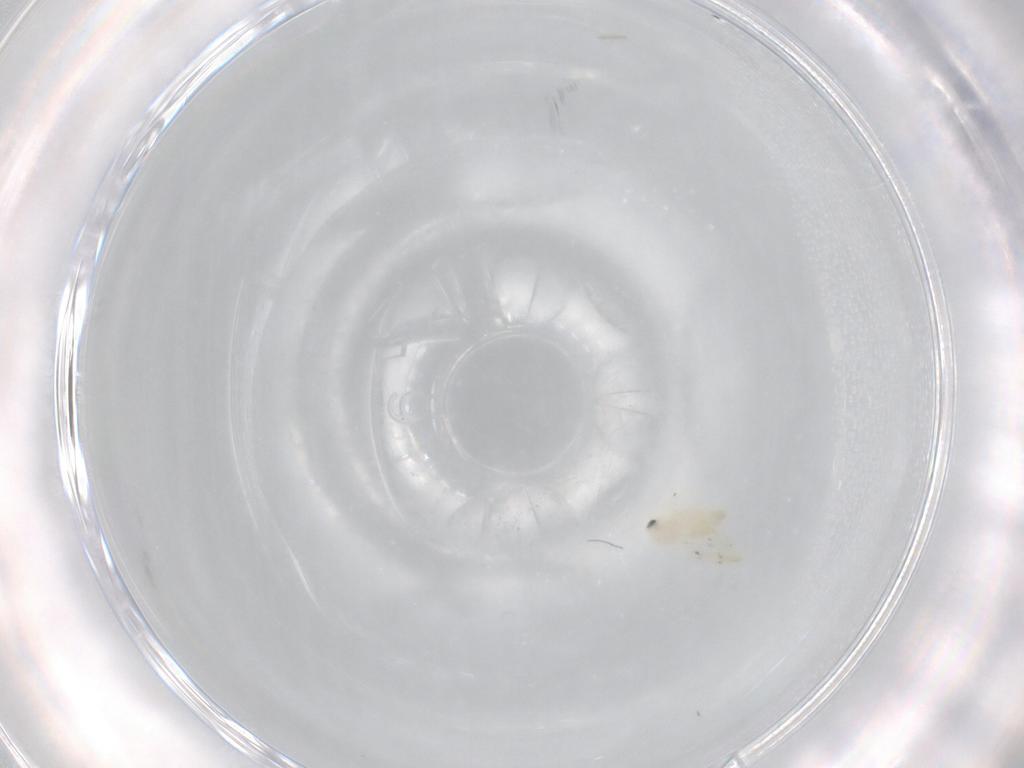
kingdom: Animalia
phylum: Arthropoda
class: Insecta
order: Hemiptera
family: Aleyrodidae
